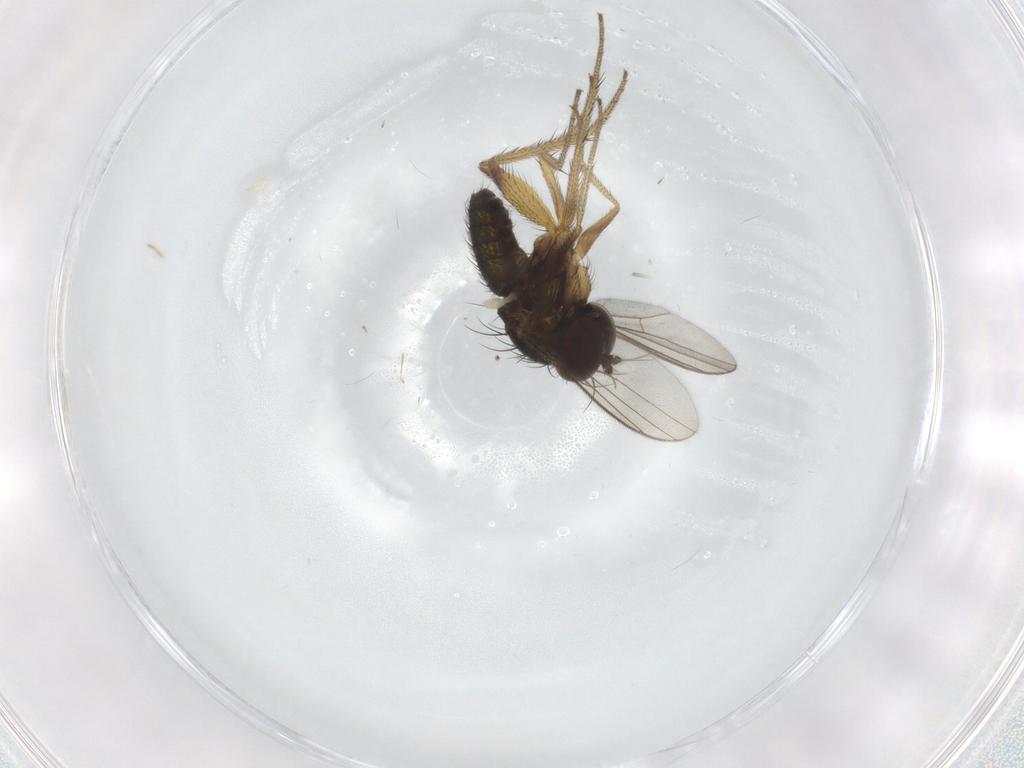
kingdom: Animalia
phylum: Arthropoda
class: Insecta
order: Diptera
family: Dolichopodidae
